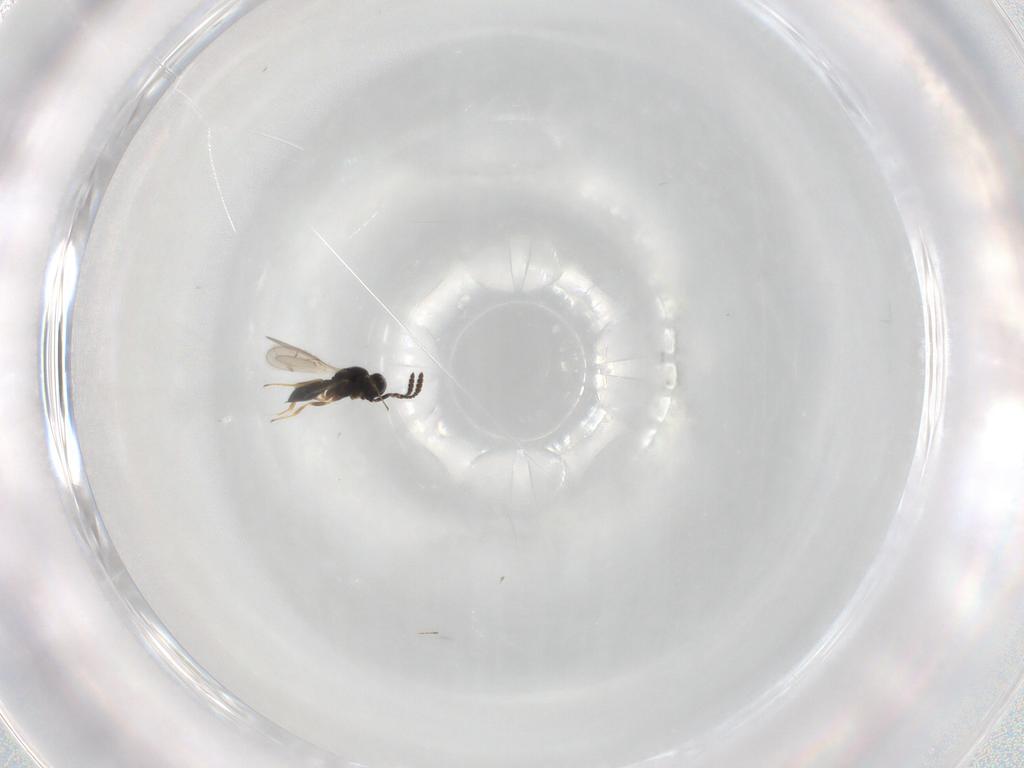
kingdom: Animalia
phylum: Arthropoda
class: Insecta
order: Hymenoptera
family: Scelionidae
